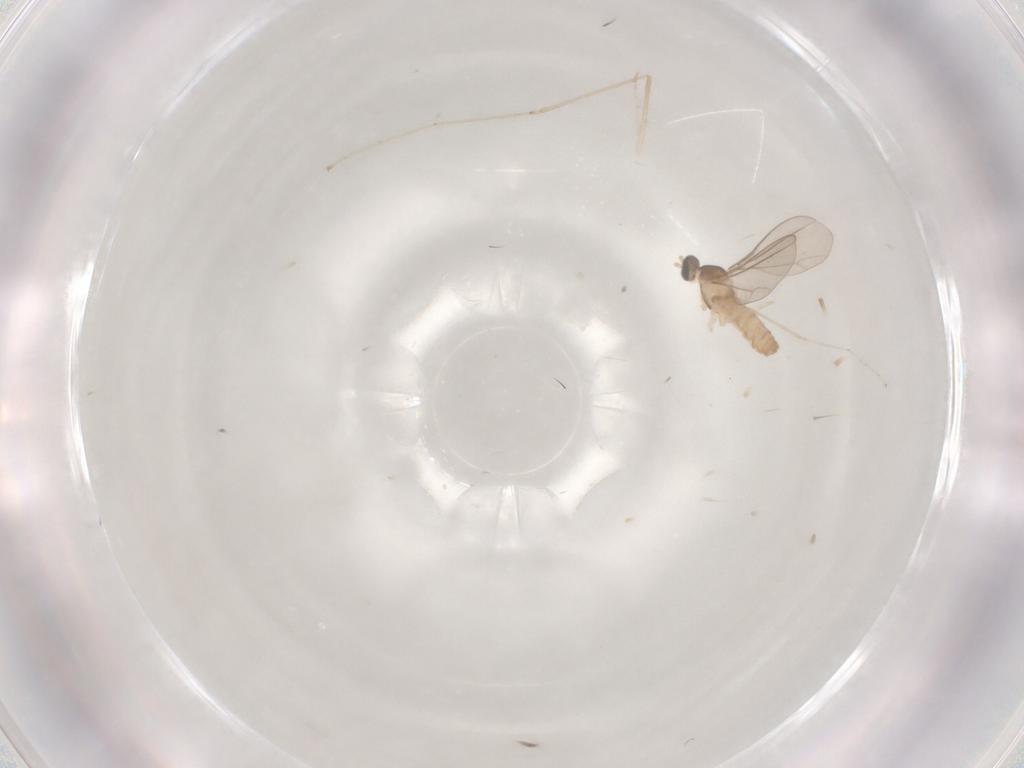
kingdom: Animalia
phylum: Arthropoda
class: Insecta
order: Diptera
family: Cecidomyiidae
